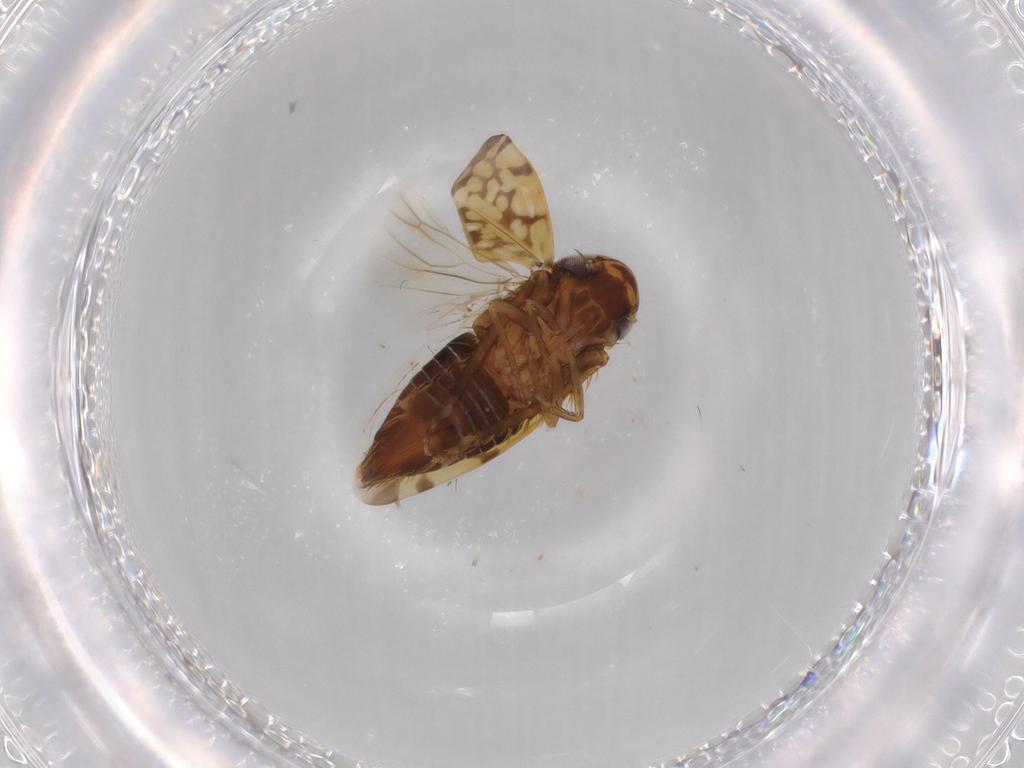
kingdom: Animalia
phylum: Arthropoda
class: Insecta
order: Hemiptera
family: Cicadellidae
